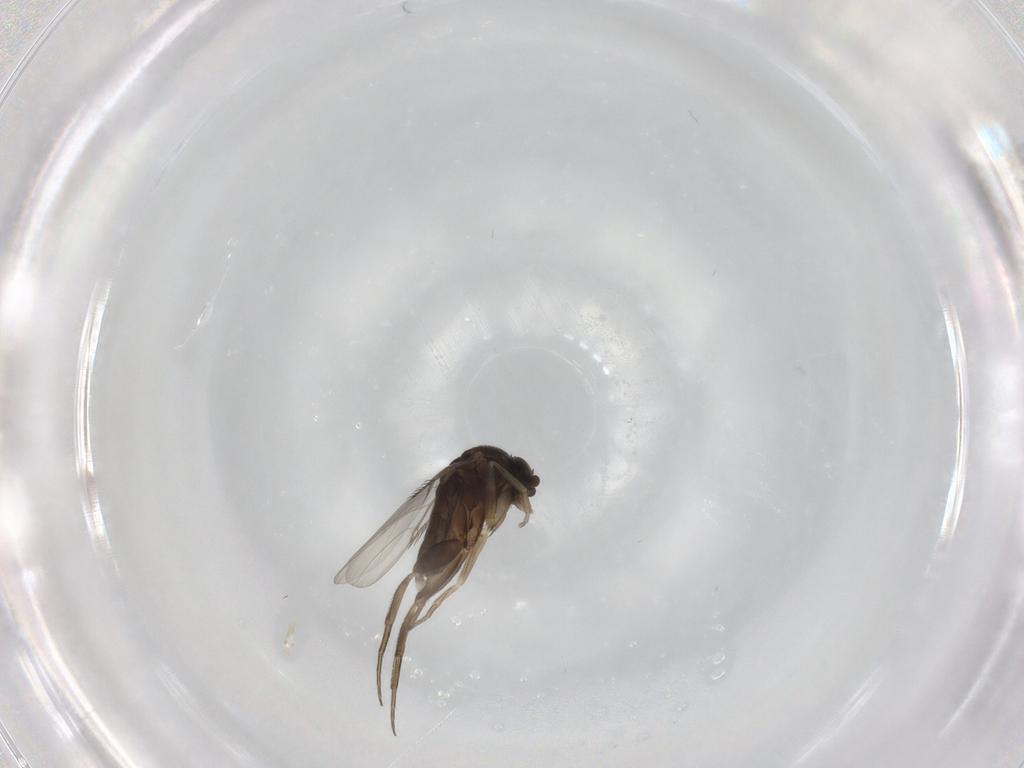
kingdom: Animalia
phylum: Arthropoda
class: Insecta
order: Diptera
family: Phoridae
